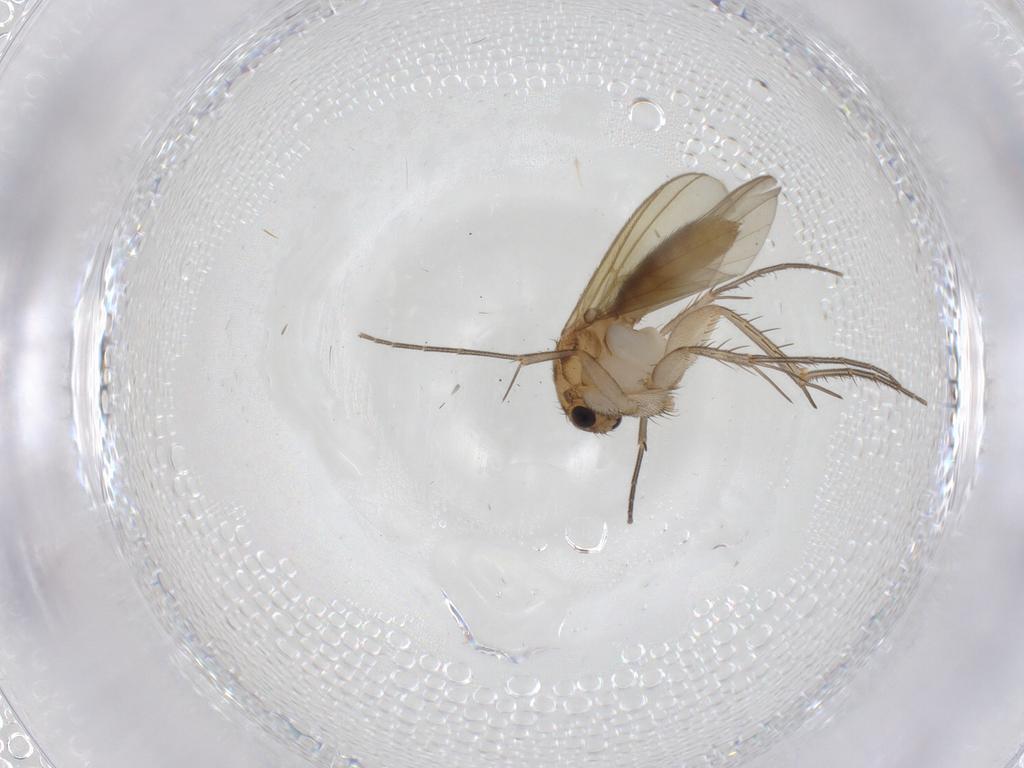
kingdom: Animalia
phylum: Arthropoda
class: Insecta
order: Diptera
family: Mycetophilidae
